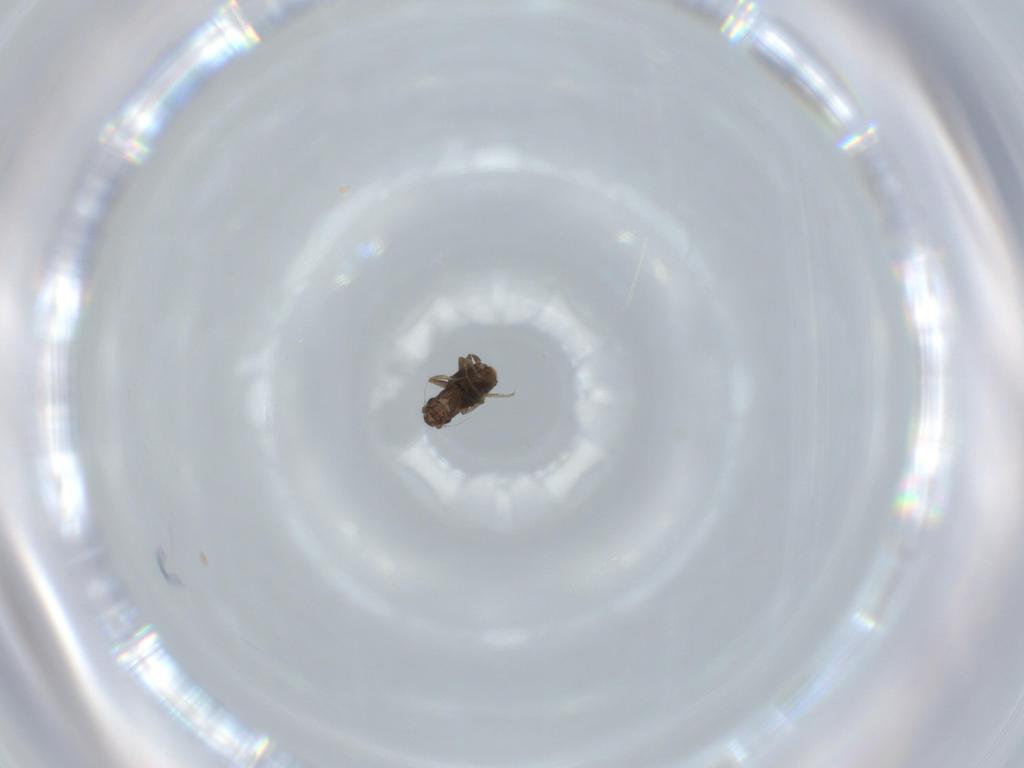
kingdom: Animalia
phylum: Arthropoda
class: Insecta
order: Diptera
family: Phoridae
